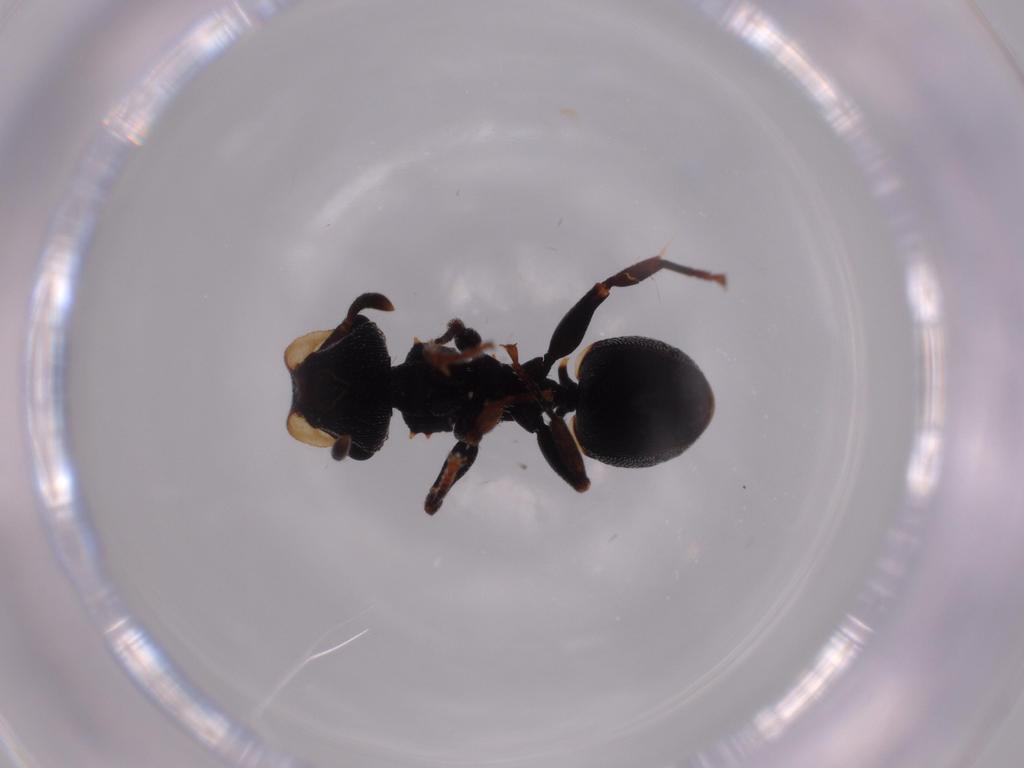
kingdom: Animalia
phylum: Arthropoda
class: Insecta
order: Hymenoptera
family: Formicidae
